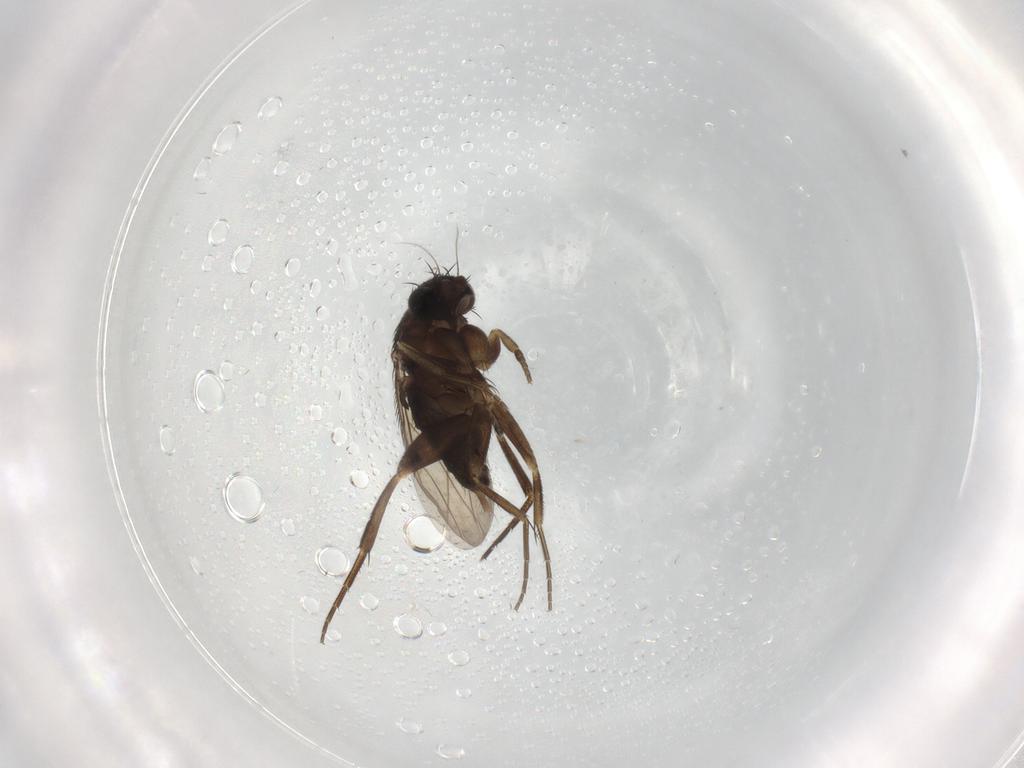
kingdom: Animalia
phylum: Arthropoda
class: Insecta
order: Diptera
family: Phoridae
